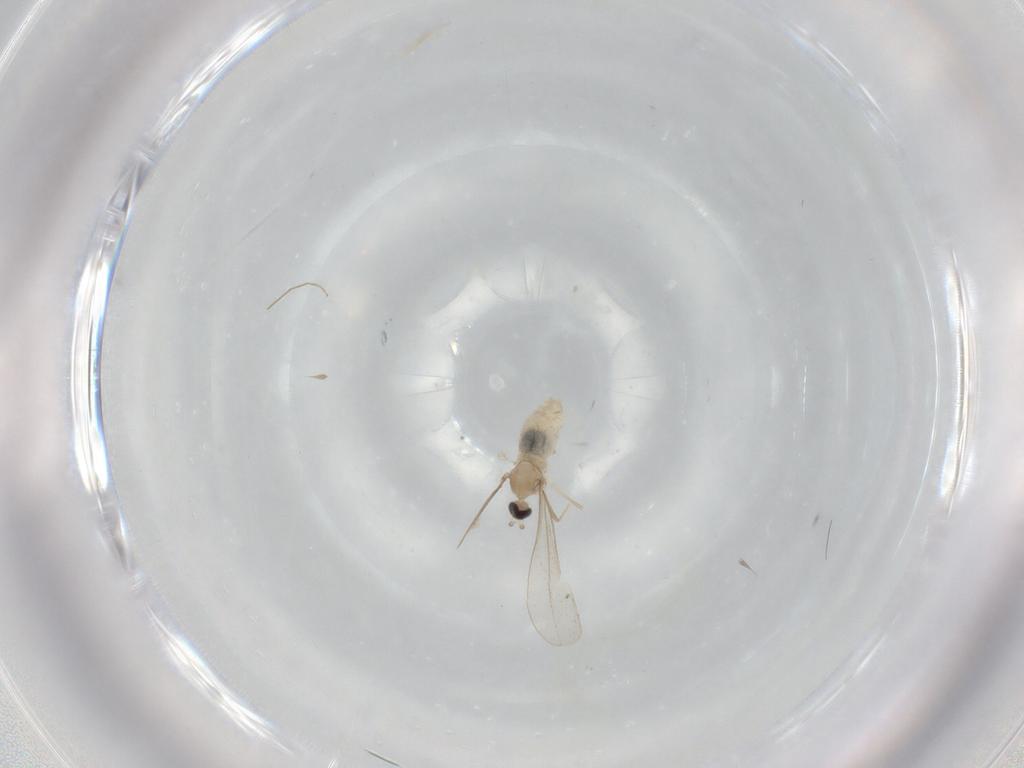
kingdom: Animalia
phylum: Arthropoda
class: Insecta
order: Diptera
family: Cecidomyiidae
